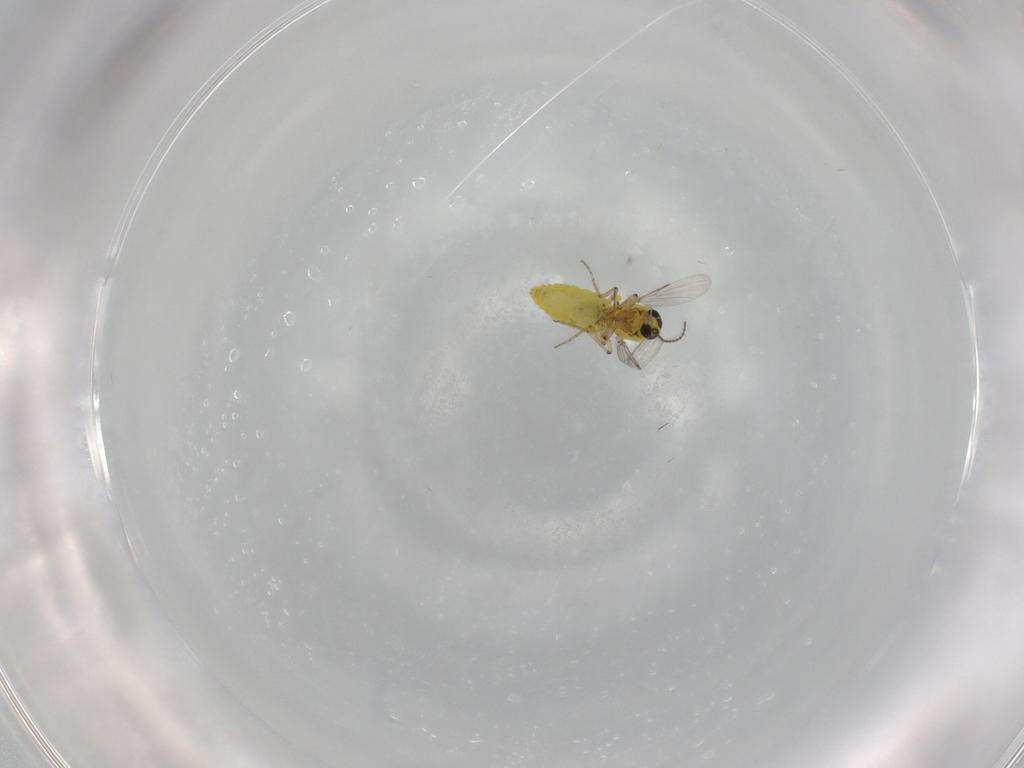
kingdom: Animalia
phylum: Arthropoda
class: Insecta
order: Diptera
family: Ceratopogonidae
